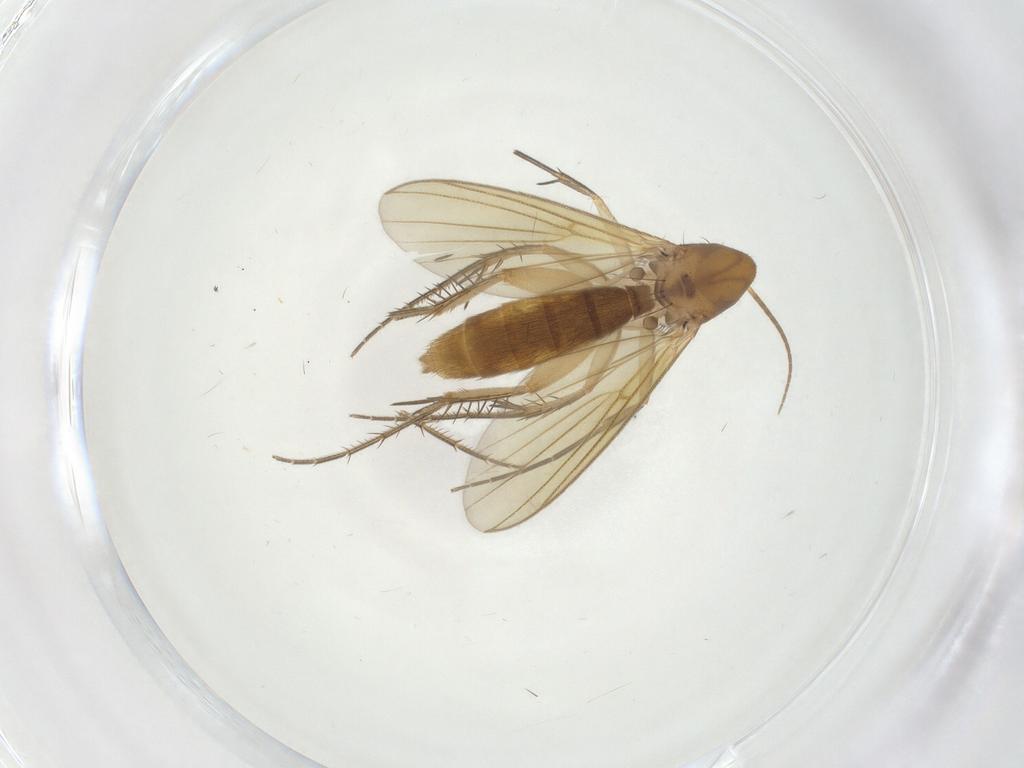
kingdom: Animalia
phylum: Arthropoda
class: Insecta
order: Diptera
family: Mycetophilidae
